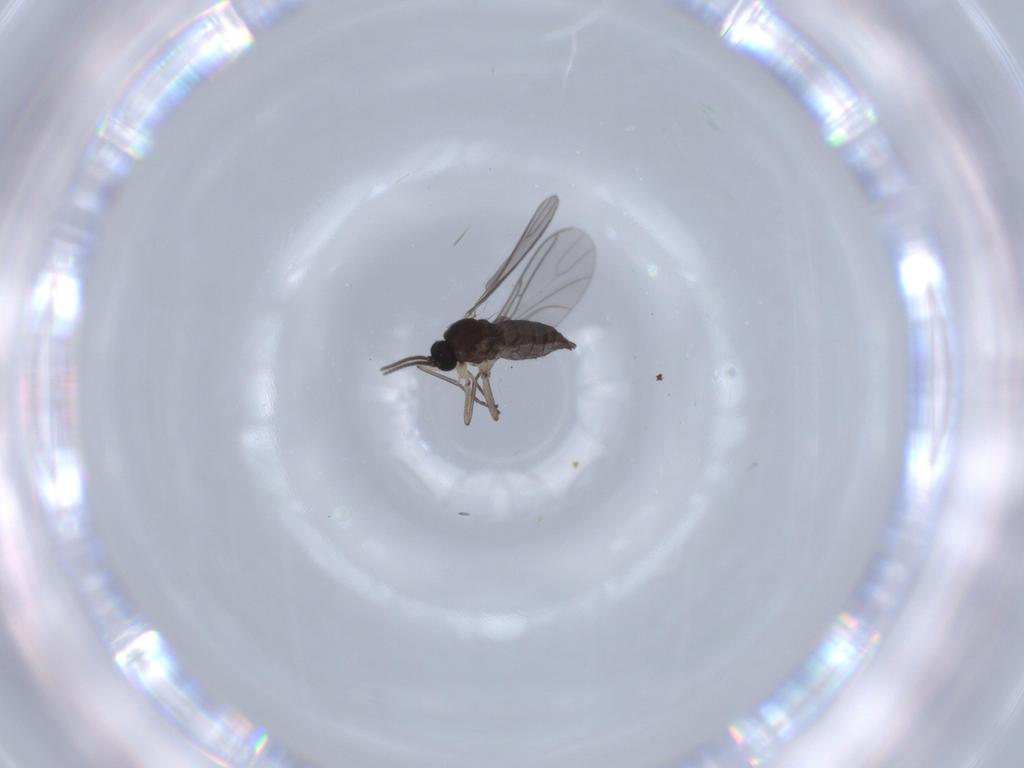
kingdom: Animalia
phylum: Arthropoda
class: Insecta
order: Diptera
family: Sciaridae
